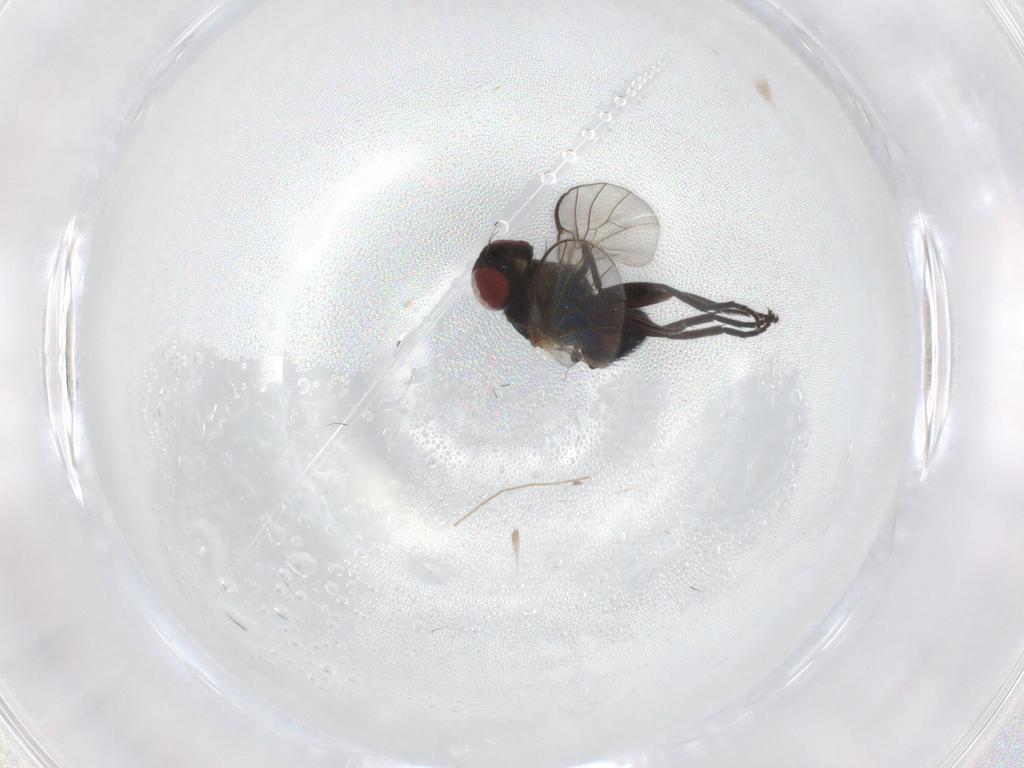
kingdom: Animalia
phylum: Arthropoda
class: Insecta
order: Diptera
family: Agromyzidae
